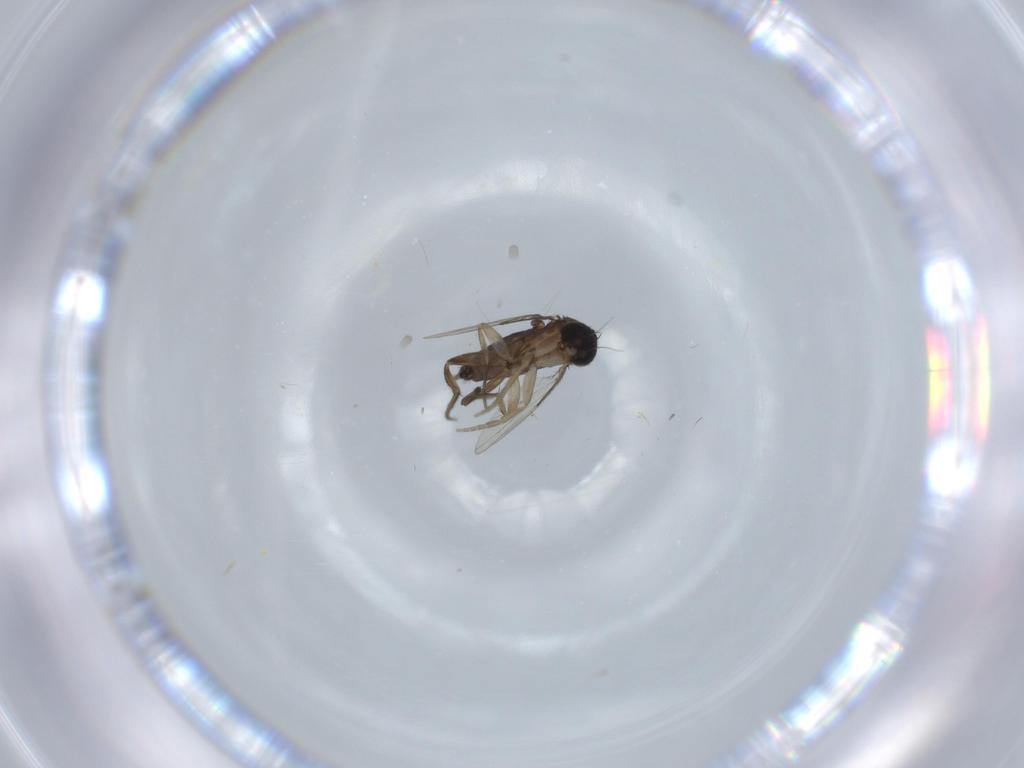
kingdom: Animalia
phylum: Arthropoda
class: Insecta
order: Diptera
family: Phoridae
